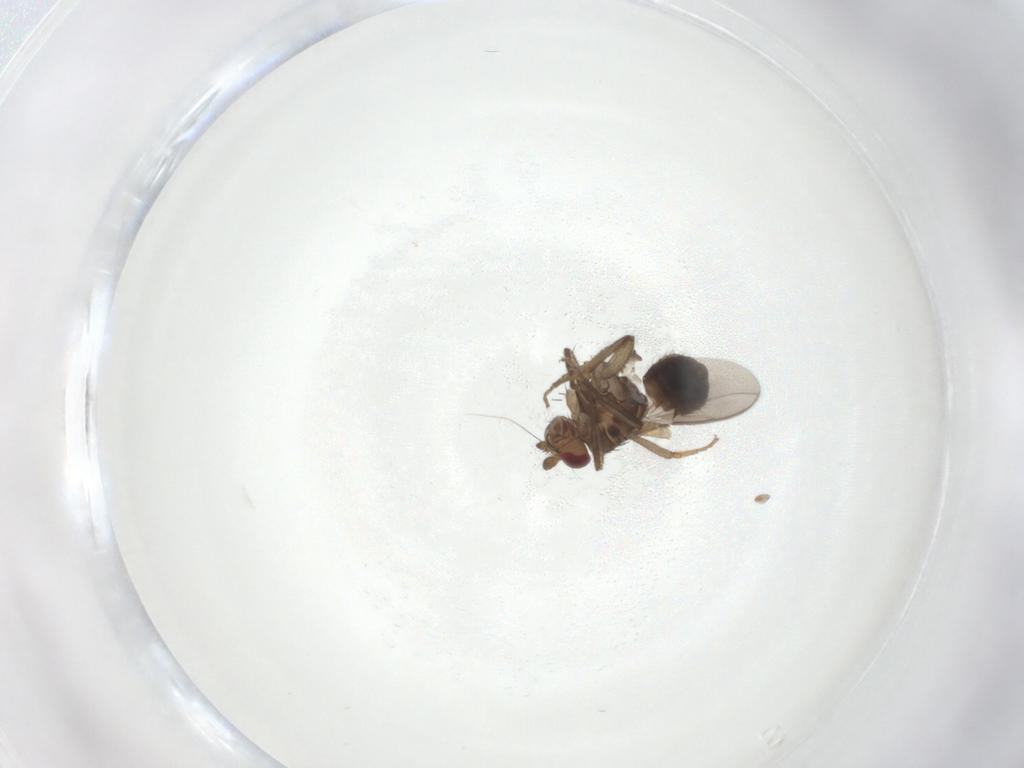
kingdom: Animalia
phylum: Arthropoda
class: Insecta
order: Diptera
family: Sphaeroceridae
